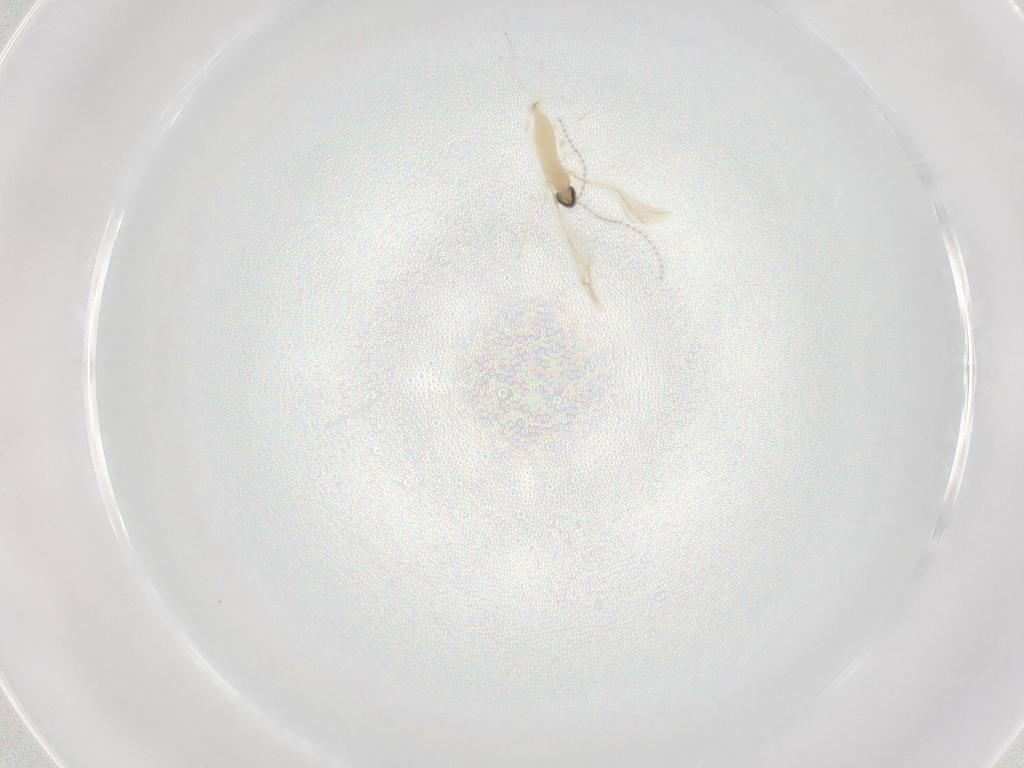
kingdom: Animalia
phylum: Arthropoda
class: Insecta
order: Diptera
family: Cecidomyiidae
